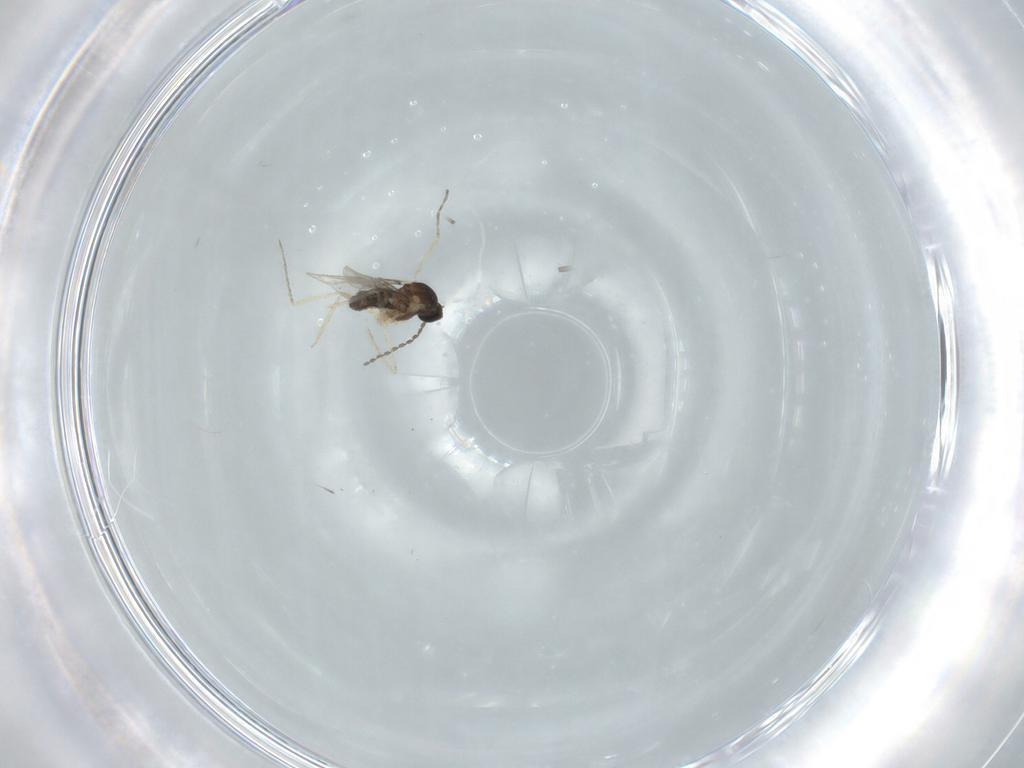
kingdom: Animalia
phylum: Arthropoda
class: Insecta
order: Diptera
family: Cecidomyiidae
